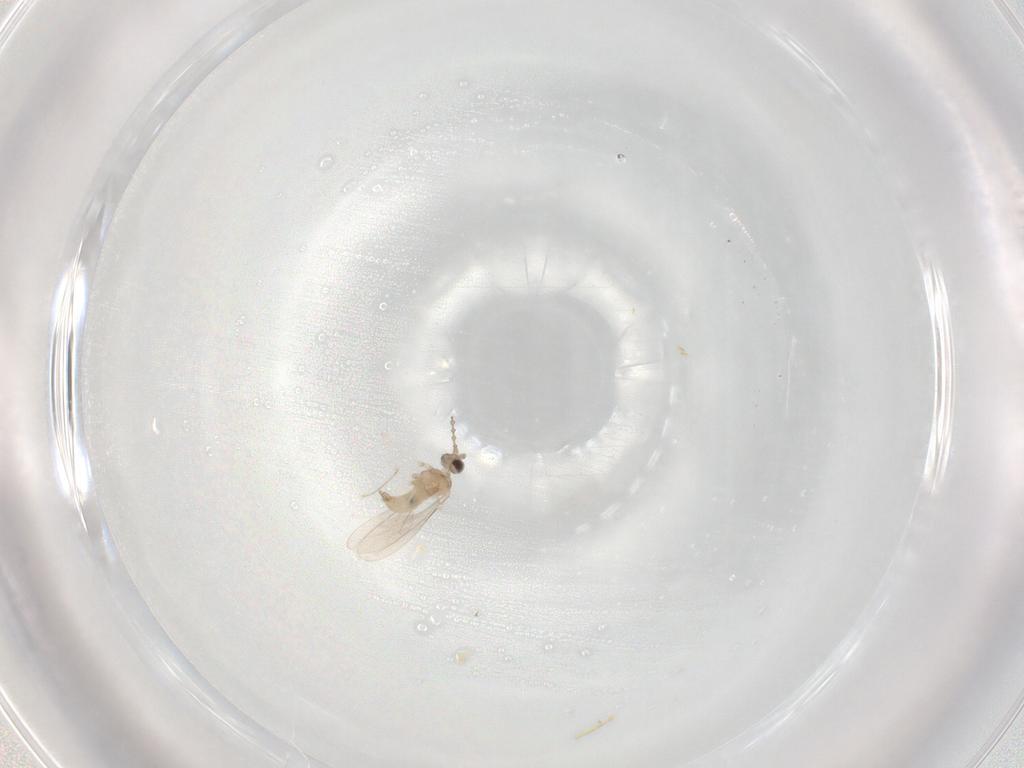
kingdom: Animalia
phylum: Arthropoda
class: Insecta
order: Diptera
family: Cecidomyiidae
